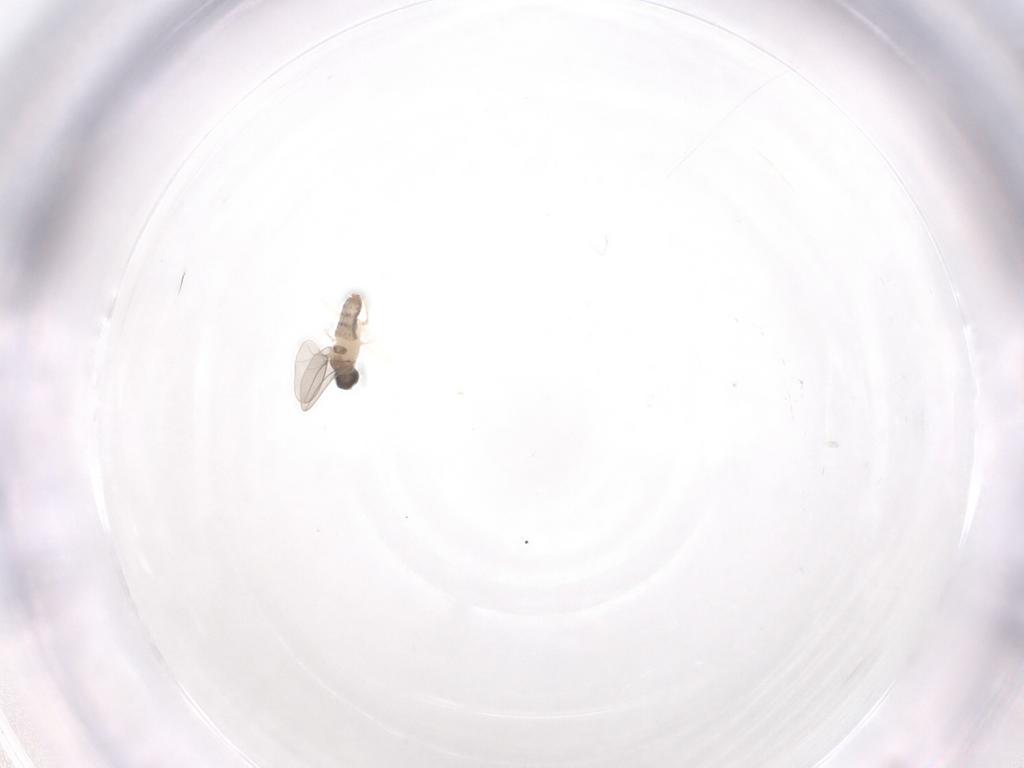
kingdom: Animalia
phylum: Arthropoda
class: Insecta
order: Diptera
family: Cecidomyiidae
